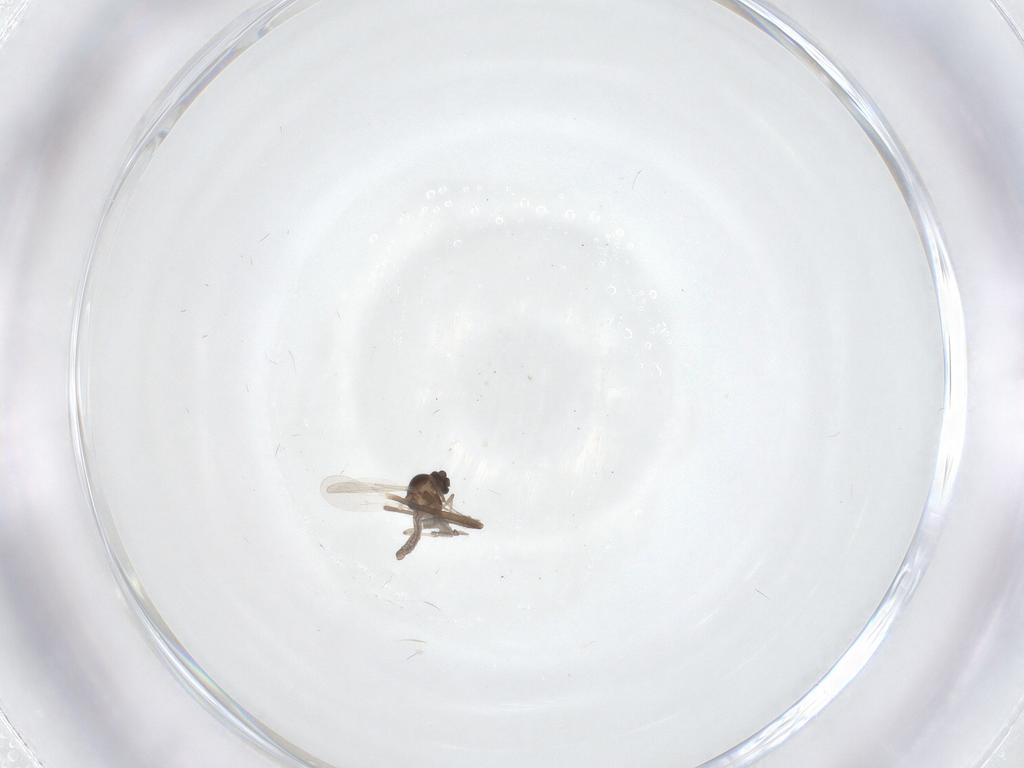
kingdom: Animalia
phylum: Arthropoda
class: Insecta
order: Diptera
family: Chironomidae
